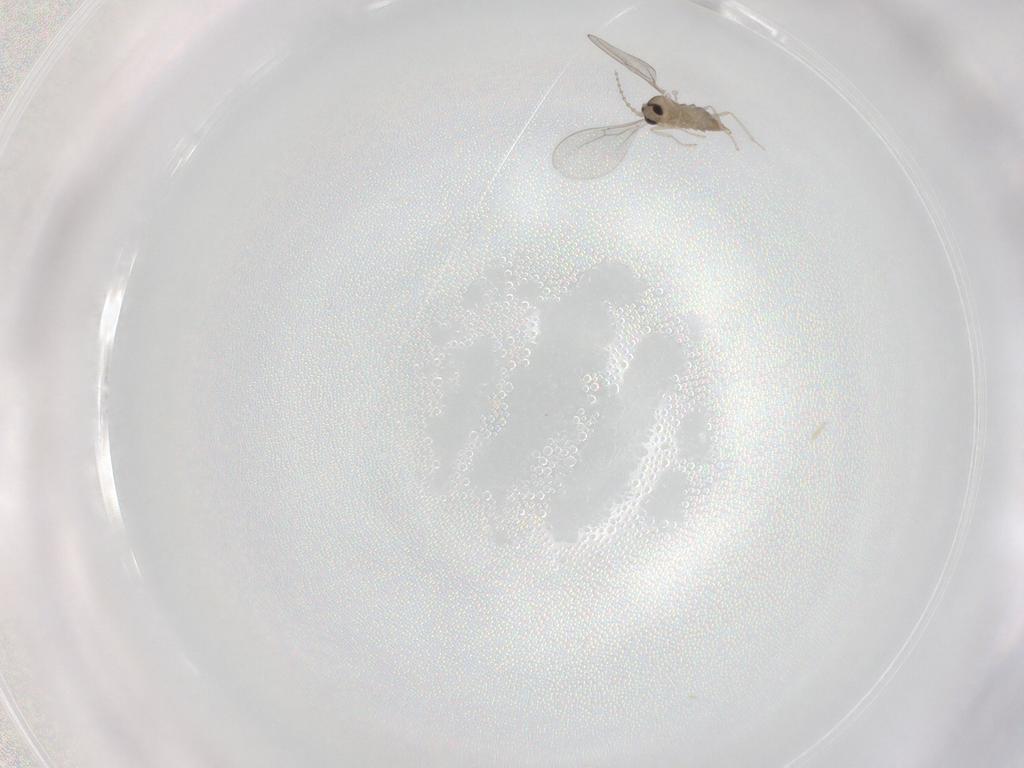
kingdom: Animalia
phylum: Arthropoda
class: Insecta
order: Diptera
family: Cecidomyiidae
